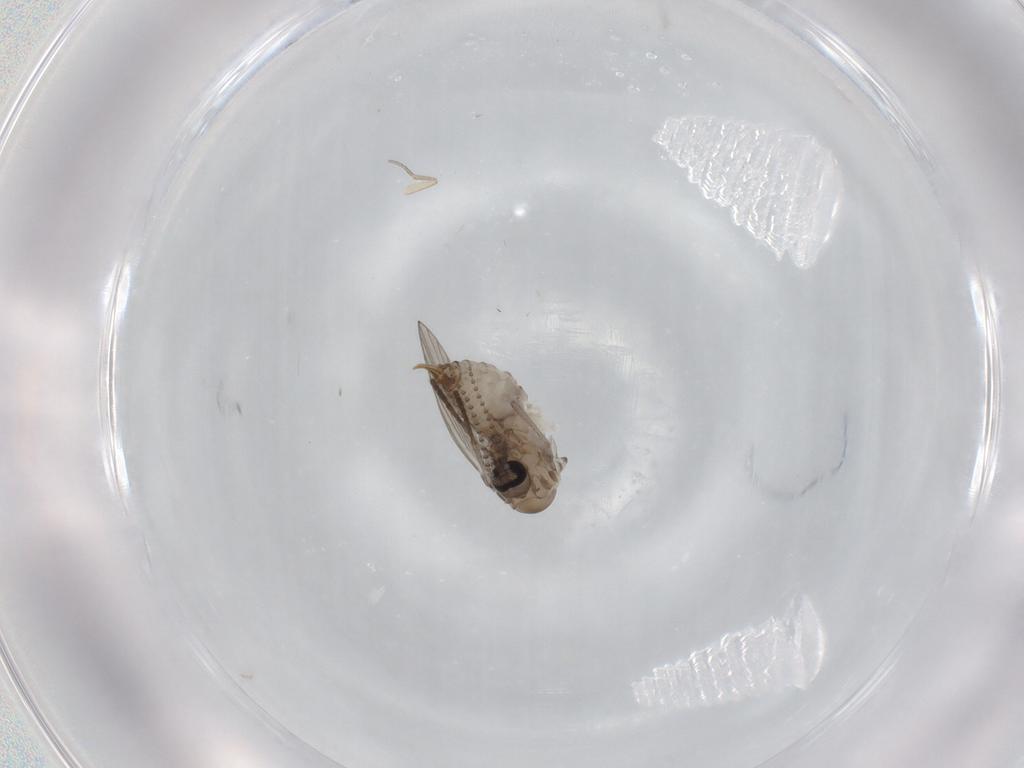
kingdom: Animalia
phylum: Arthropoda
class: Insecta
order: Diptera
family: Psychodidae
